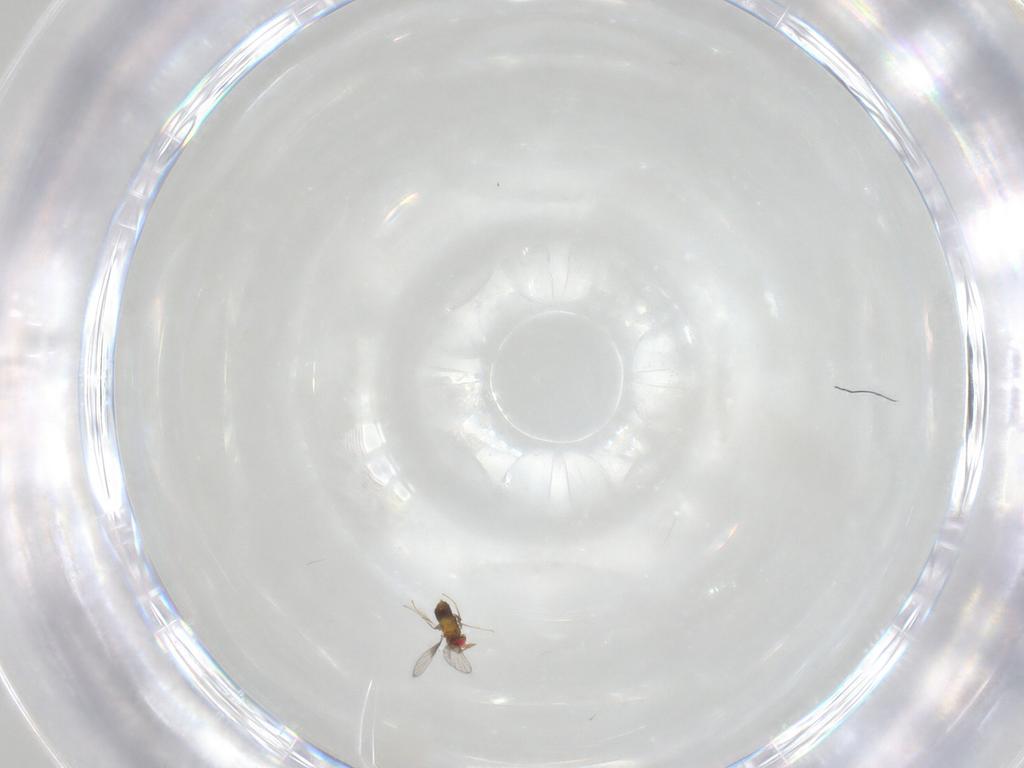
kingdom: Animalia
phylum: Arthropoda
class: Insecta
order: Hymenoptera
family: Trichogrammatidae
